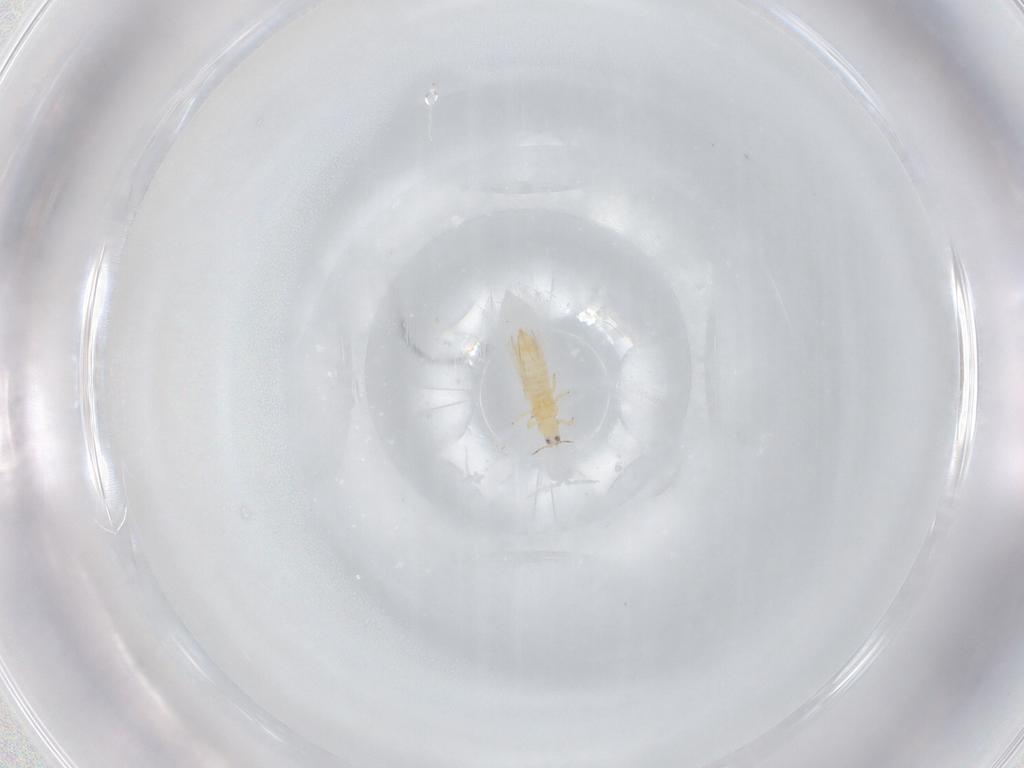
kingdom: Animalia
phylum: Arthropoda
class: Insecta
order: Thysanoptera
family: Thripidae
